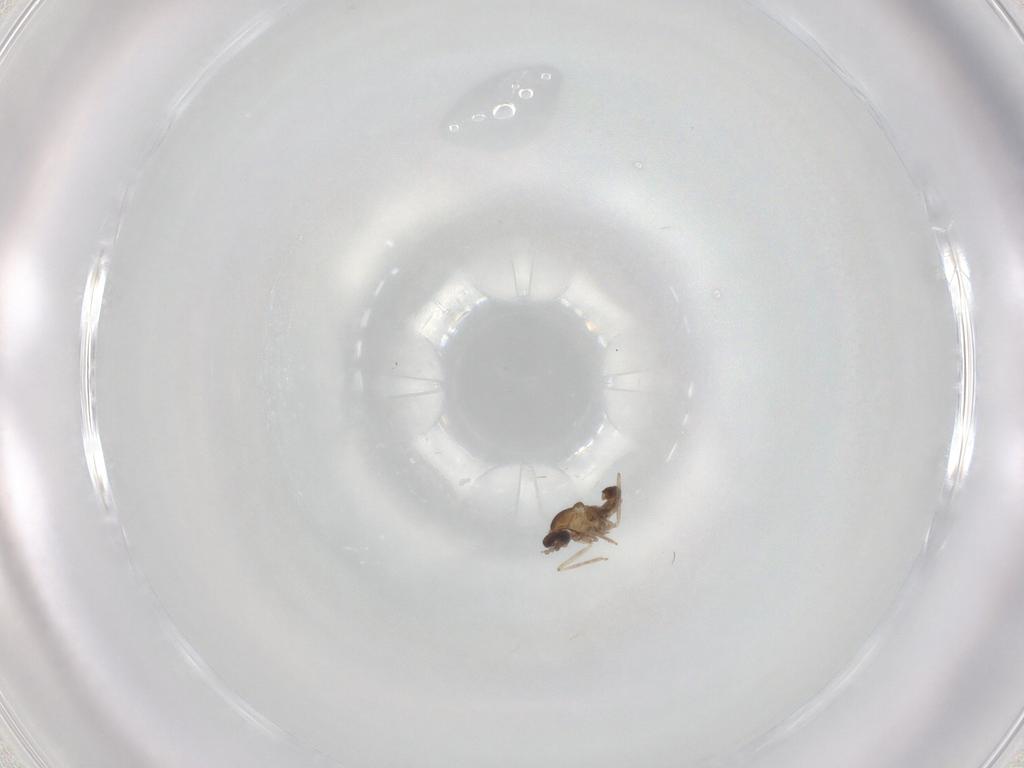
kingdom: Animalia
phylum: Arthropoda
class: Insecta
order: Diptera
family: Cecidomyiidae
